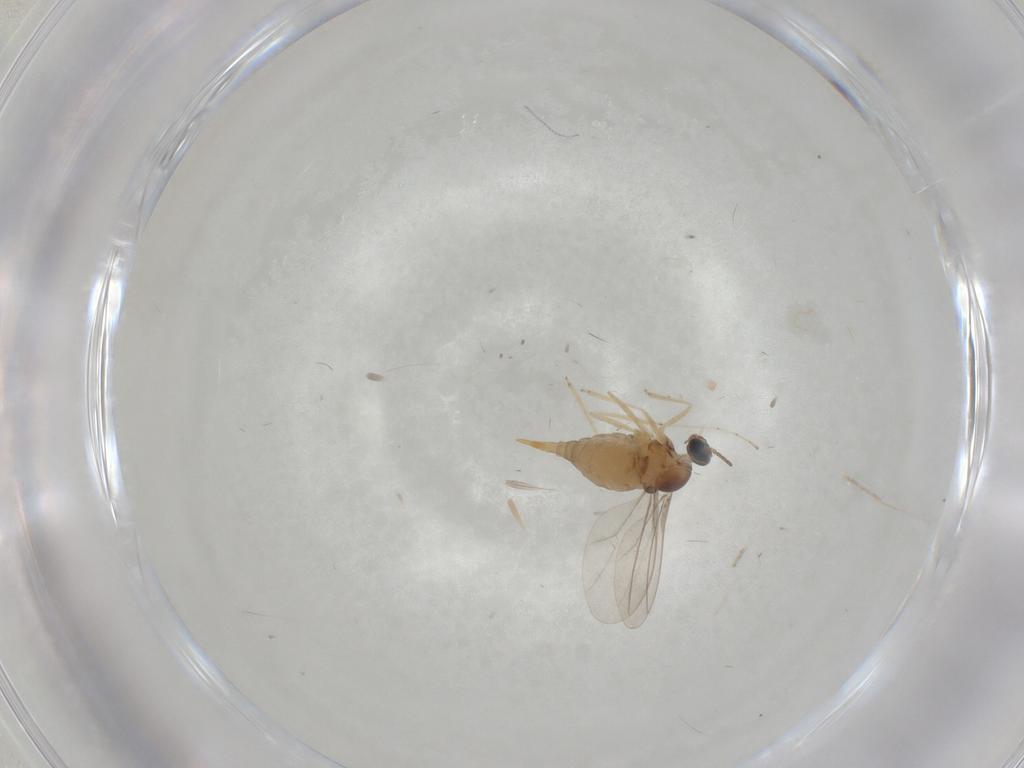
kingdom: Animalia
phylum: Arthropoda
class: Insecta
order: Diptera
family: Cecidomyiidae
